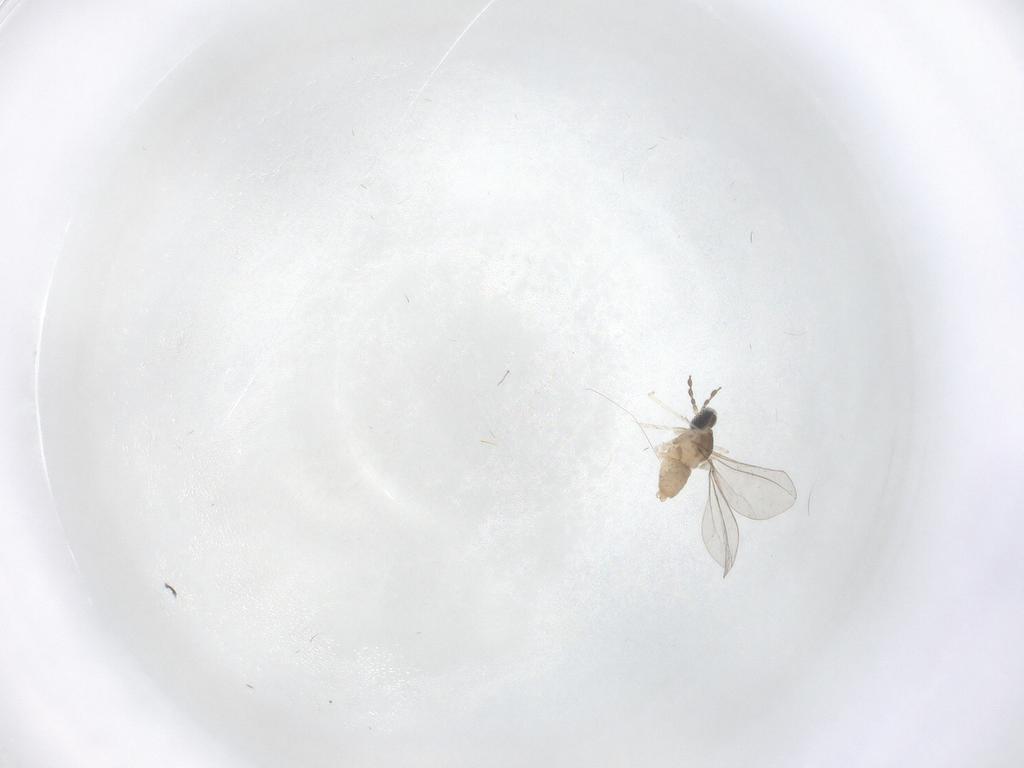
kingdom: Animalia
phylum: Arthropoda
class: Insecta
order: Diptera
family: Cecidomyiidae
